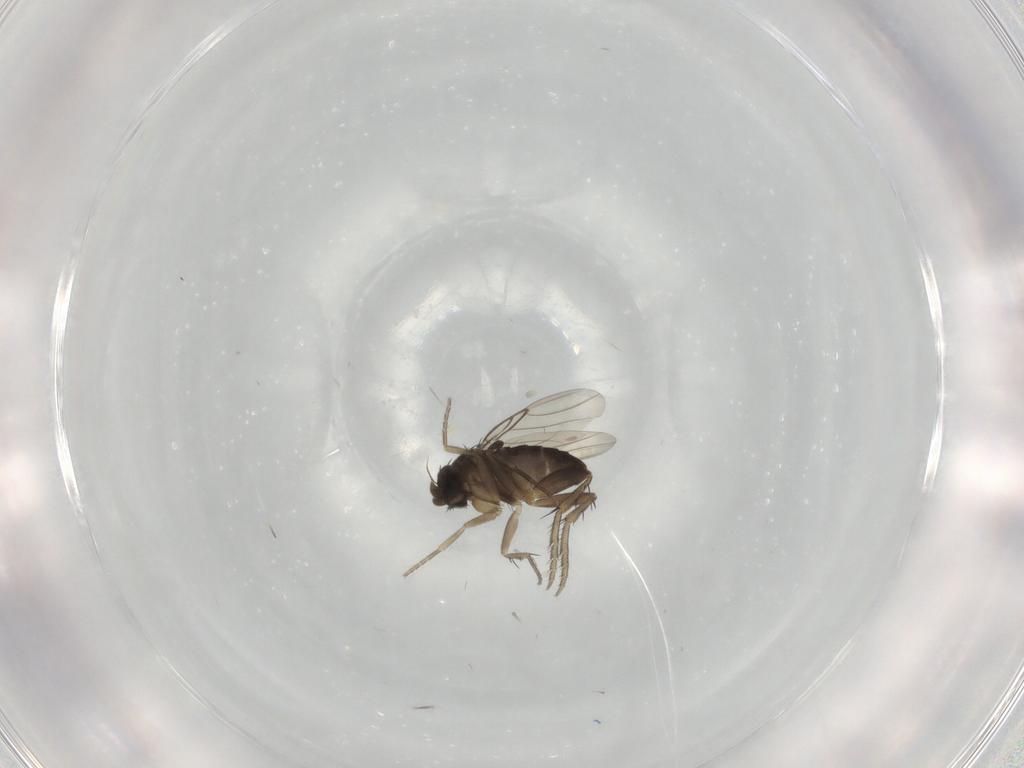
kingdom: Animalia
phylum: Arthropoda
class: Insecta
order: Diptera
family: Phoridae
